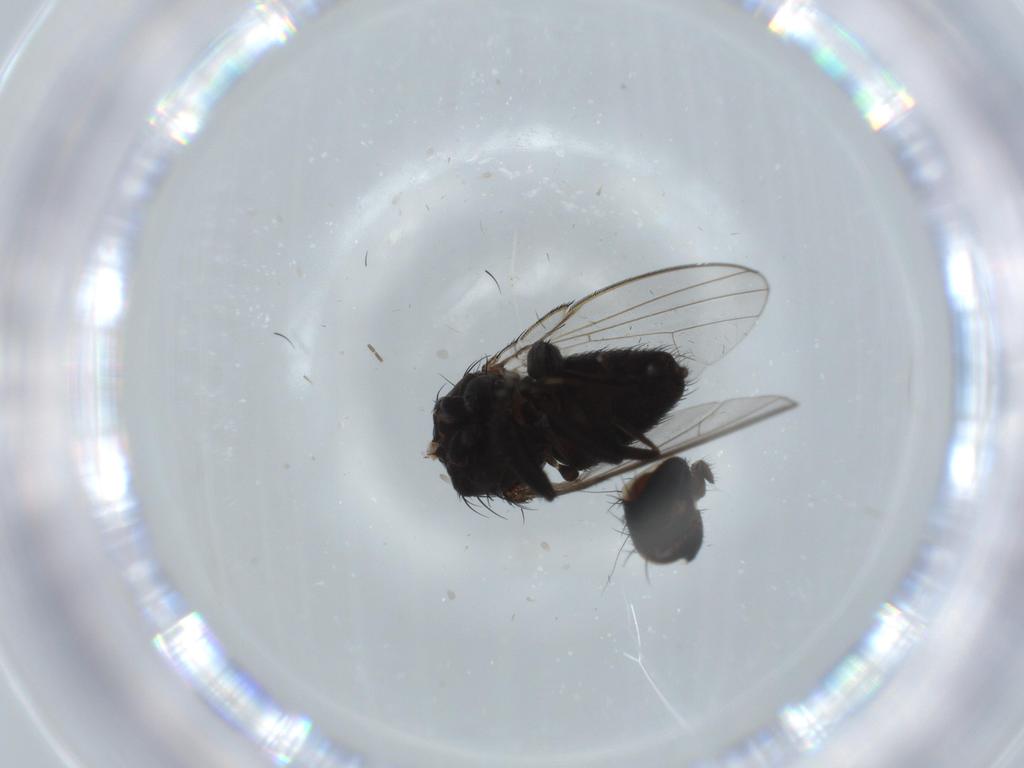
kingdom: Animalia
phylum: Arthropoda
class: Insecta
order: Diptera
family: Milichiidae
